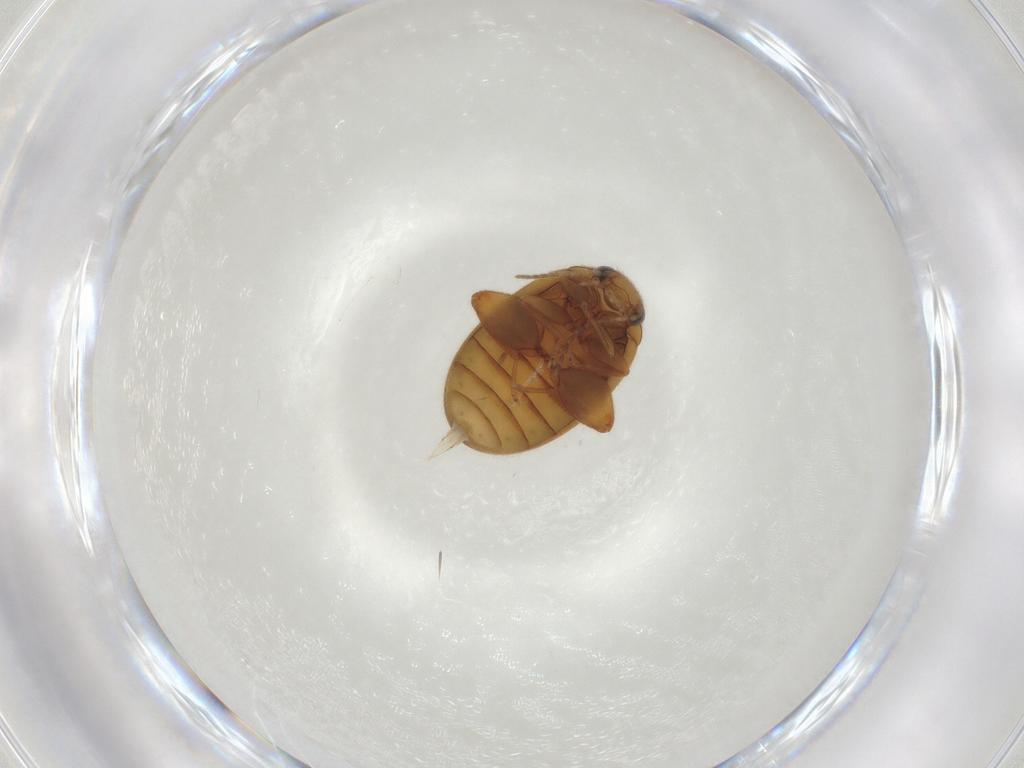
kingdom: Animalia
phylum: Arthropoda
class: Insecta
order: Coleoptera
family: Scirtidae
